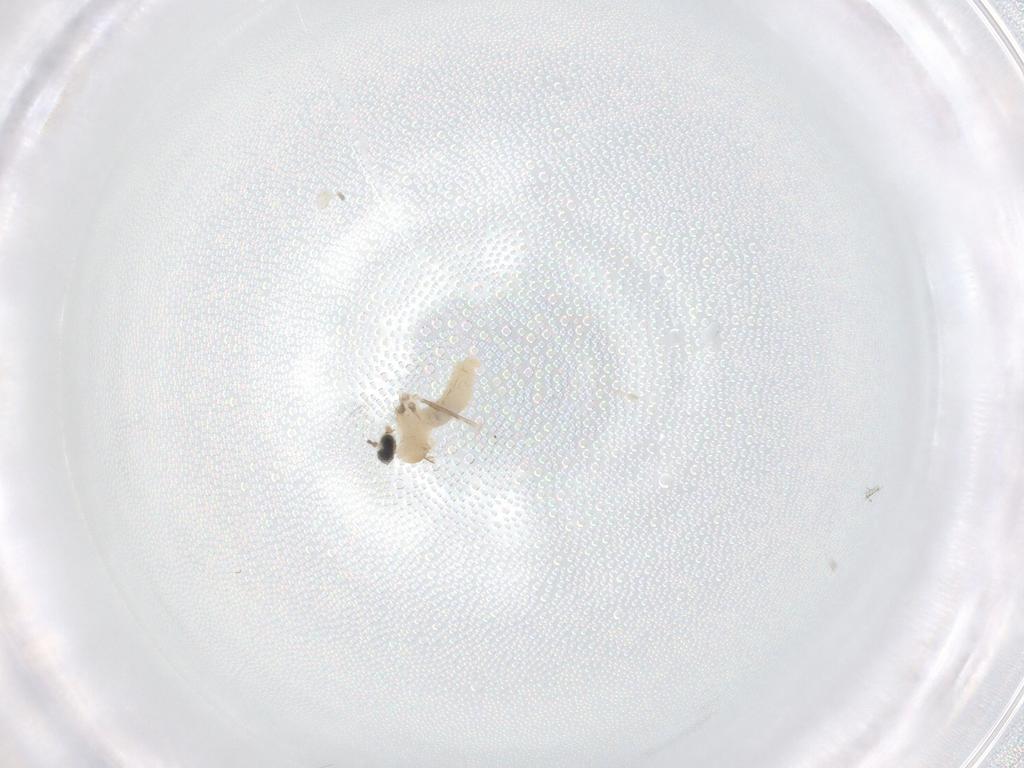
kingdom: Animalia
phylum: Arthropoda
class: Insecta
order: Diptera
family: Cecidomyiidae
